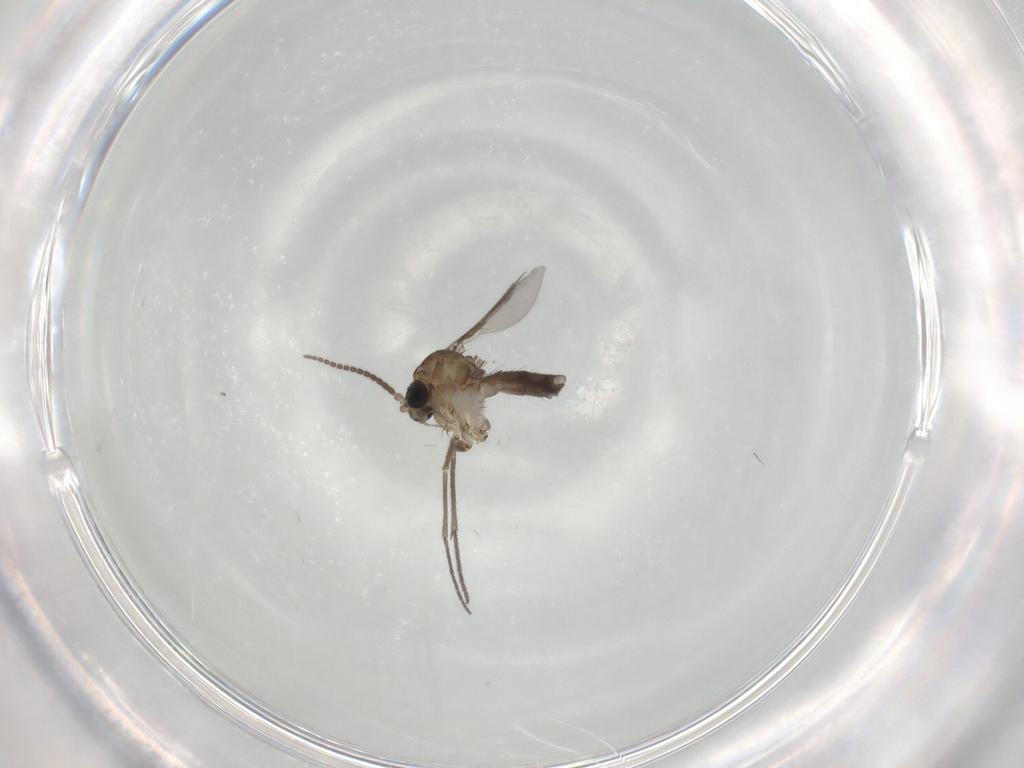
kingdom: Animalia
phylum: Arthropoda
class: Insecta
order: Diptera
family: Mycetophilidae
